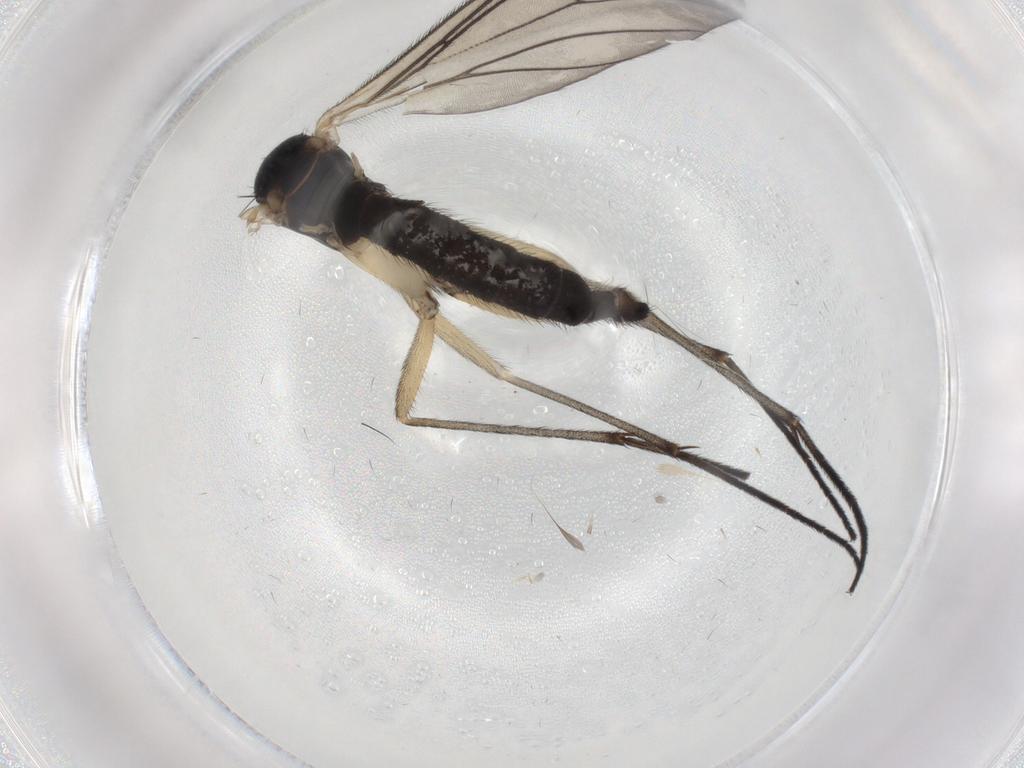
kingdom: Animalia
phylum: Arthropoda
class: Insecta
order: Diptera
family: Sciaridae
